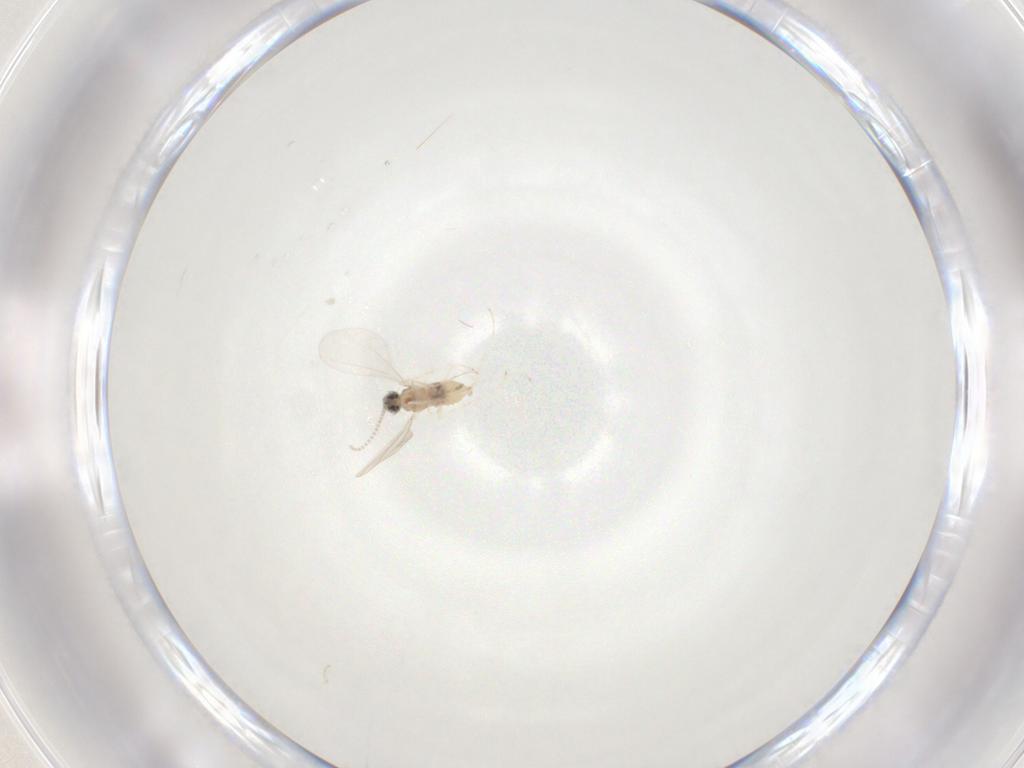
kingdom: Animalia
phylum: Arthropoda
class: Insecta
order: Diptera
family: Chironomidae
